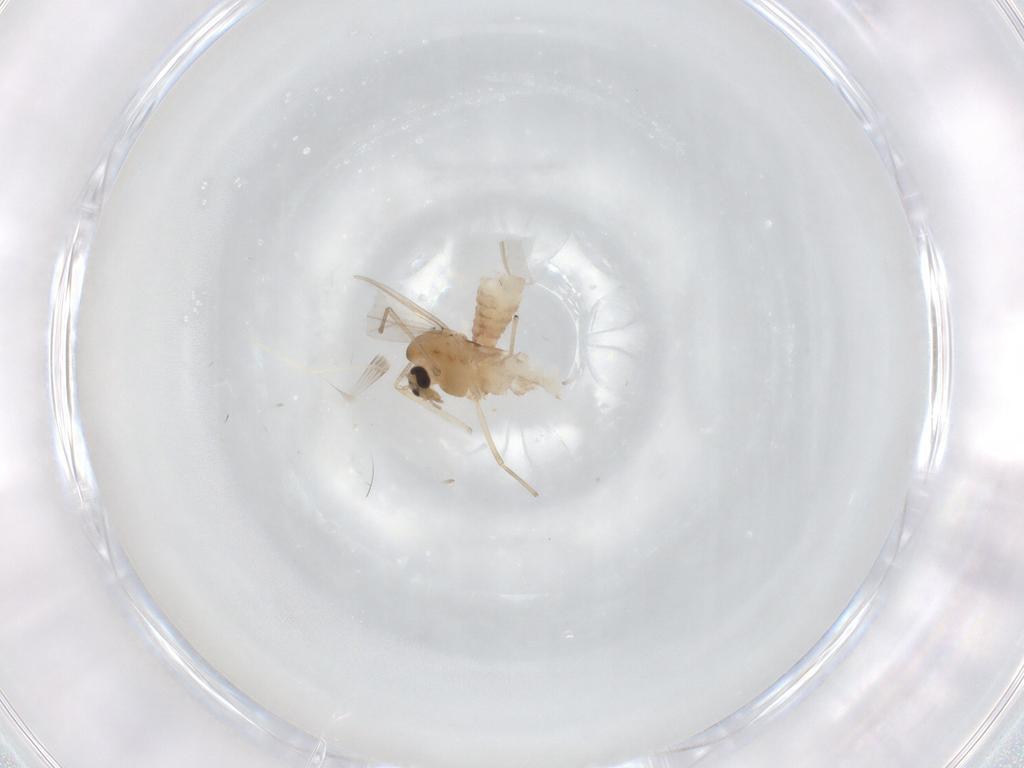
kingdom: Animalia
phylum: Arthropoda
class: Insecta
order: Diptera
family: Chironomidae
